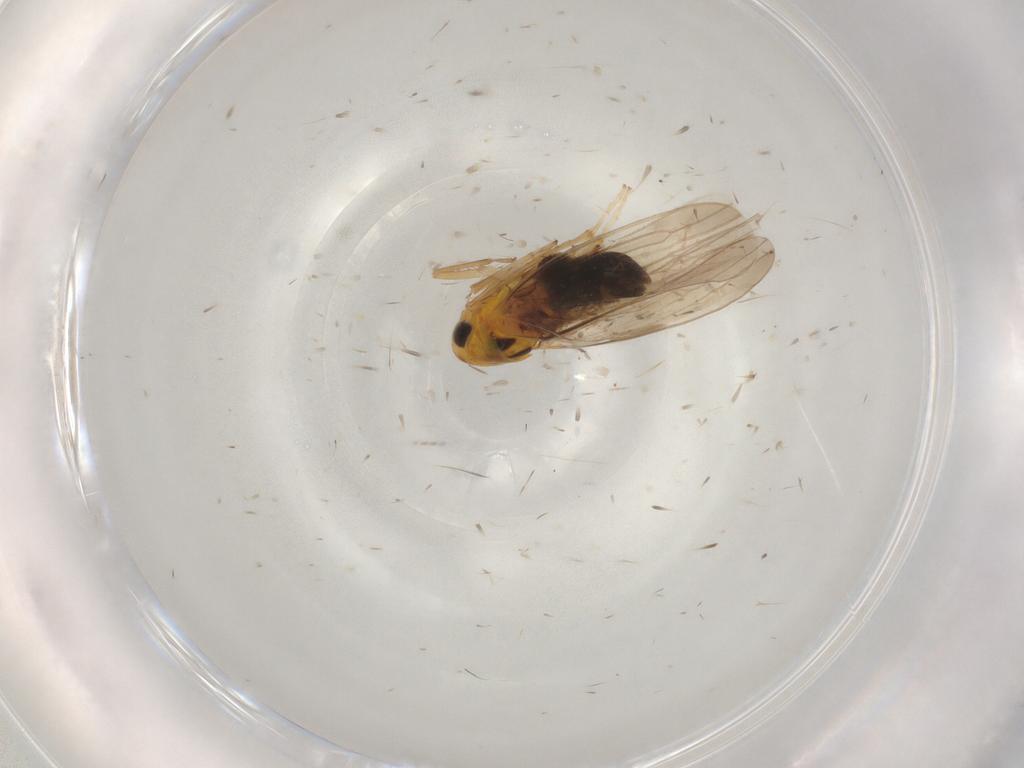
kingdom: Animalia
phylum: Arthropoda
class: Insecta
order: Hemiptera
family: Cicadellidae
